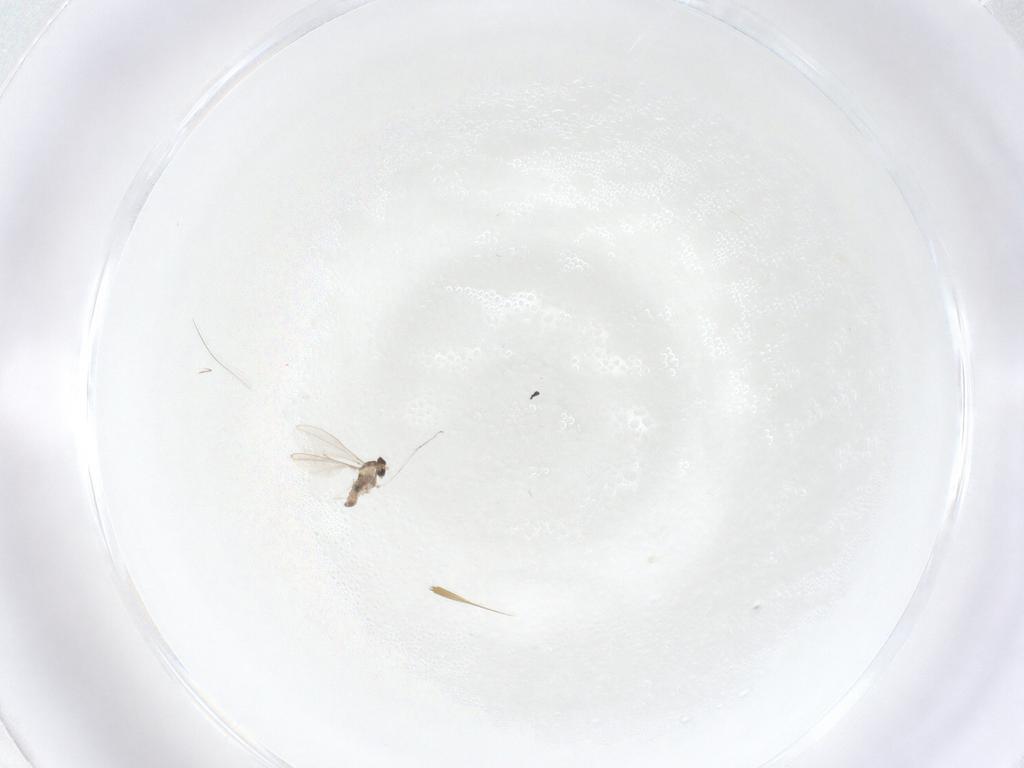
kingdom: Animalia
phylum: Arthropoda
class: Insecta
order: Diptera
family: Cecidomyiidae
